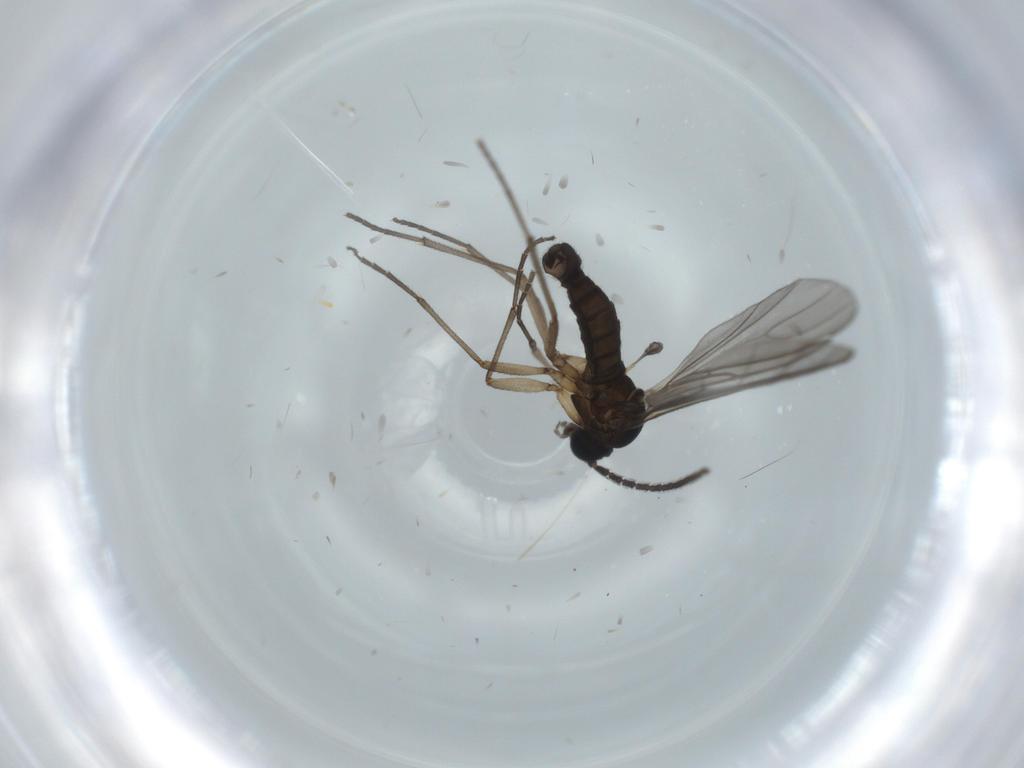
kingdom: Animalia
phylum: Arthropoda
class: Insecta
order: Diptera
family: Sciaridae
